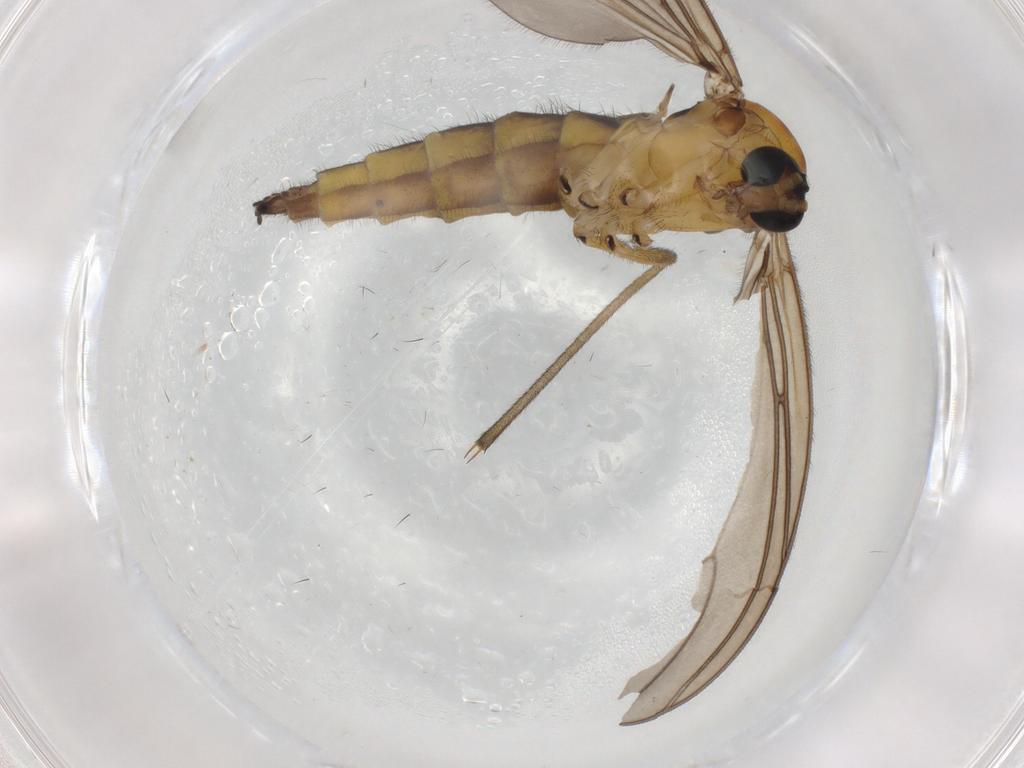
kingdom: Animalia
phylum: Arthropoda
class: Insecta
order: Diptera
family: Sciaridae
